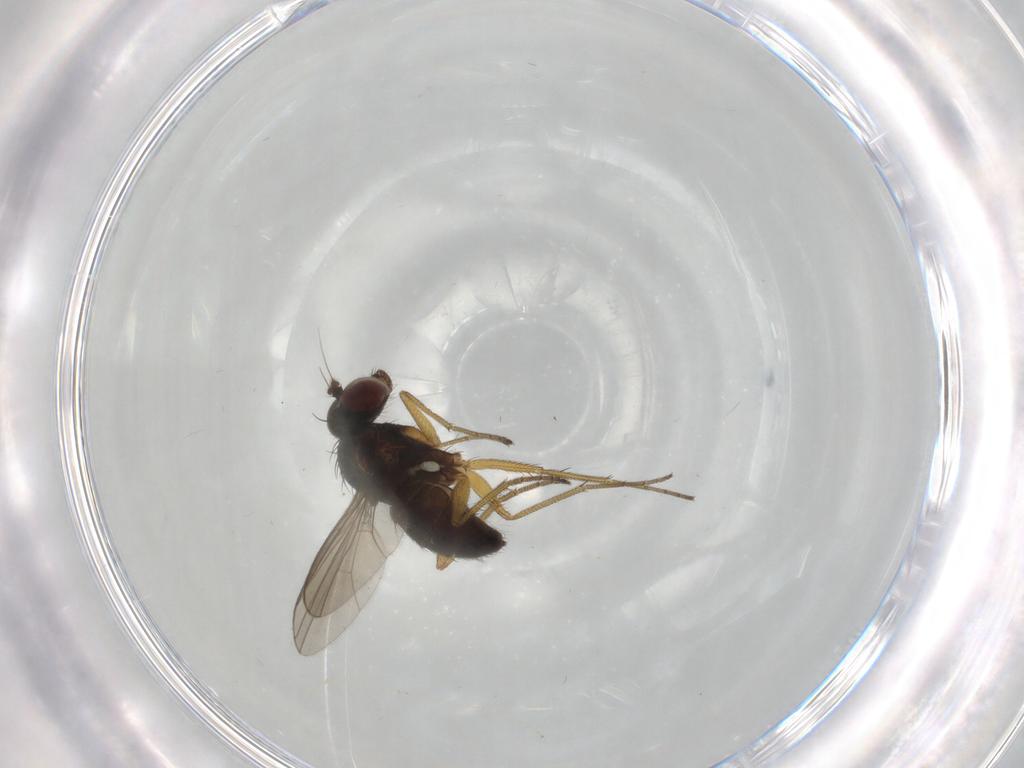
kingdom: Animalia
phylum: Arthropoda
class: Insecta
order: Diptera
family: Dolichopodidae
